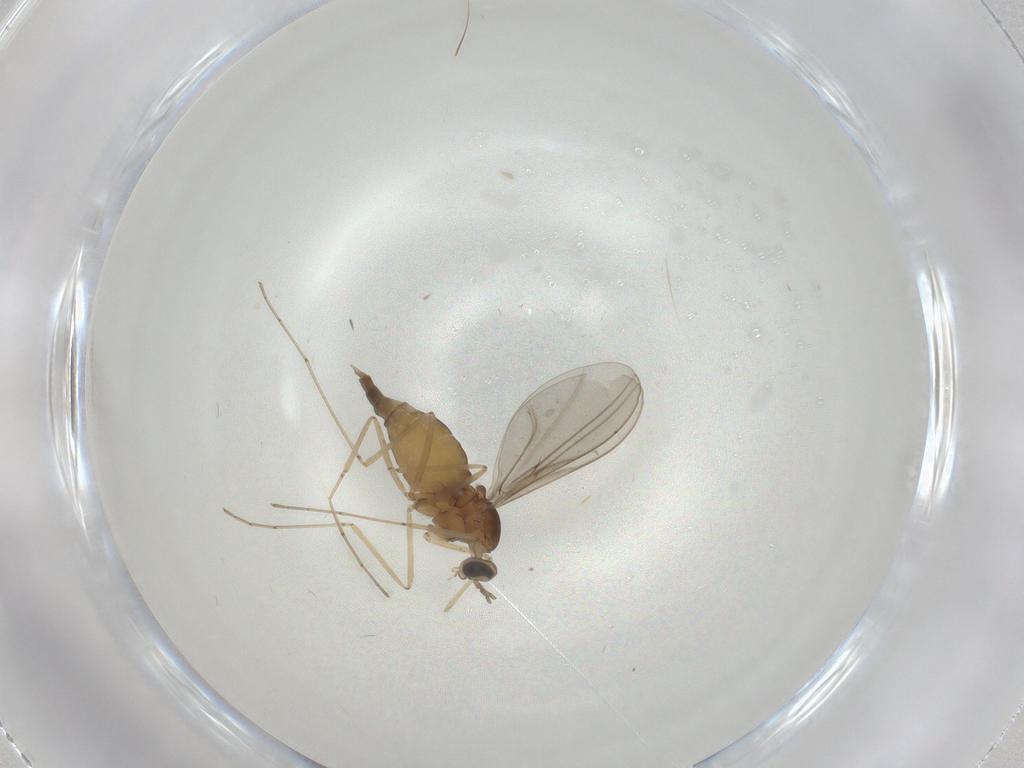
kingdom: Animalia
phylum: Arthropoda
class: Insecta
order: Diptera
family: Cecidomyiidae
